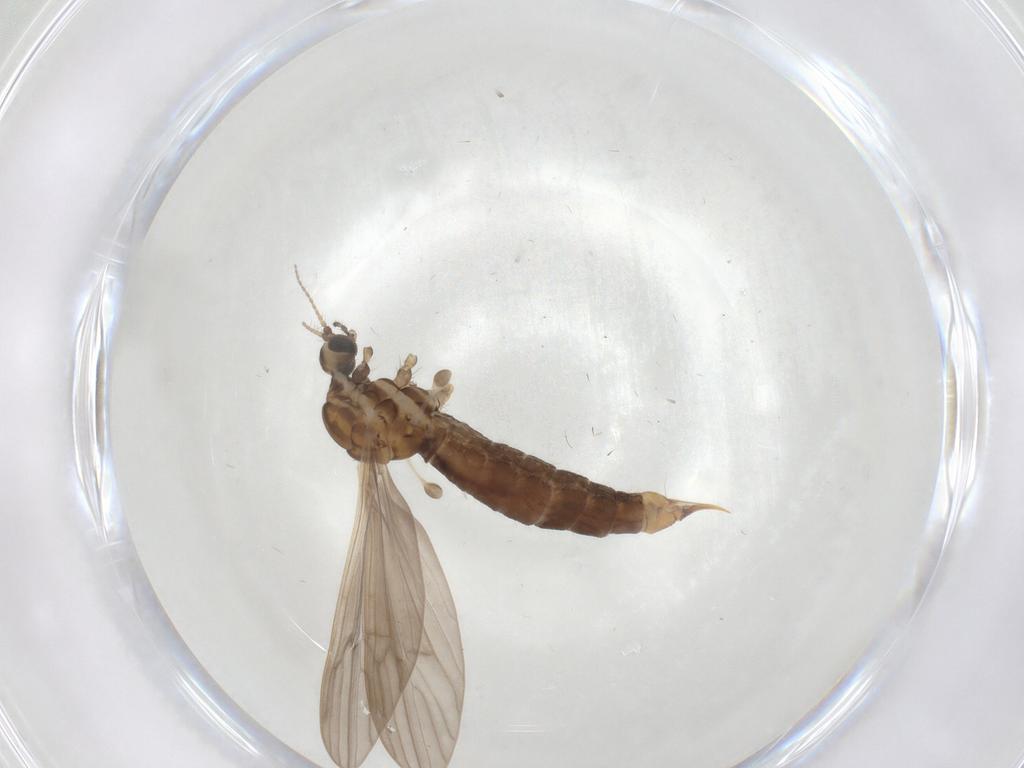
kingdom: Animalia
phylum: Arthropoda
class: Insecta
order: Diptera
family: Limoniidae
